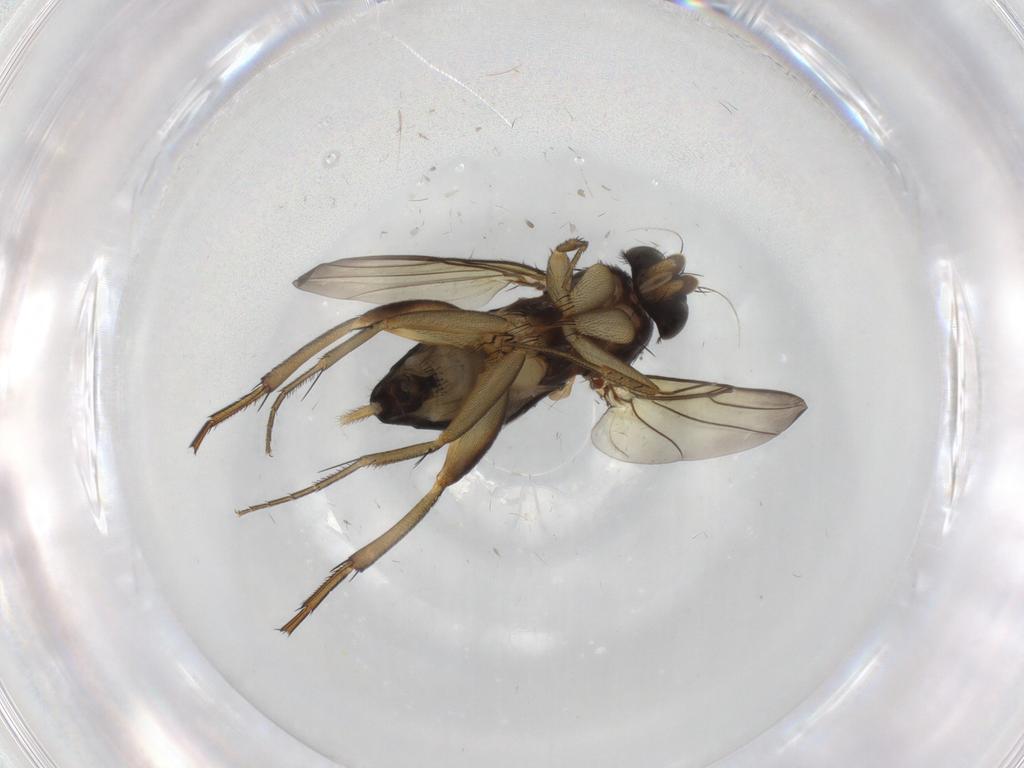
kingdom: Animalia
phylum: Arthropoda
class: Insecta
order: Diptera
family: Phoridae
